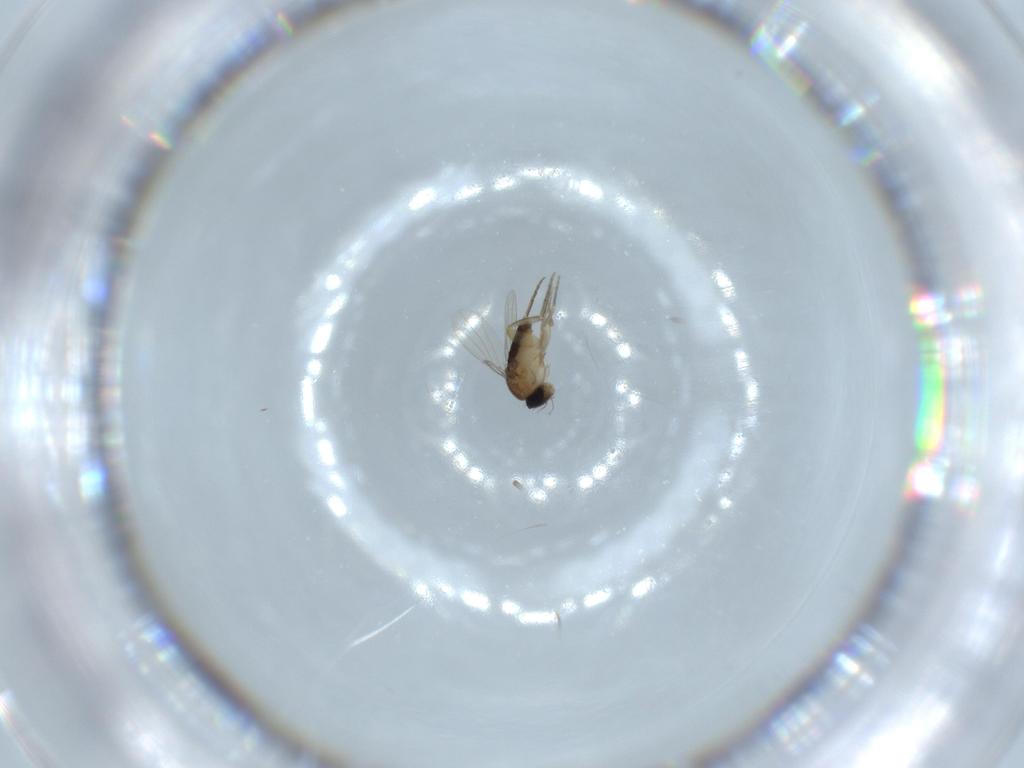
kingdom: Animalia
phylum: Arthropoda
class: Insecta
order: Diptera
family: Phoridae
